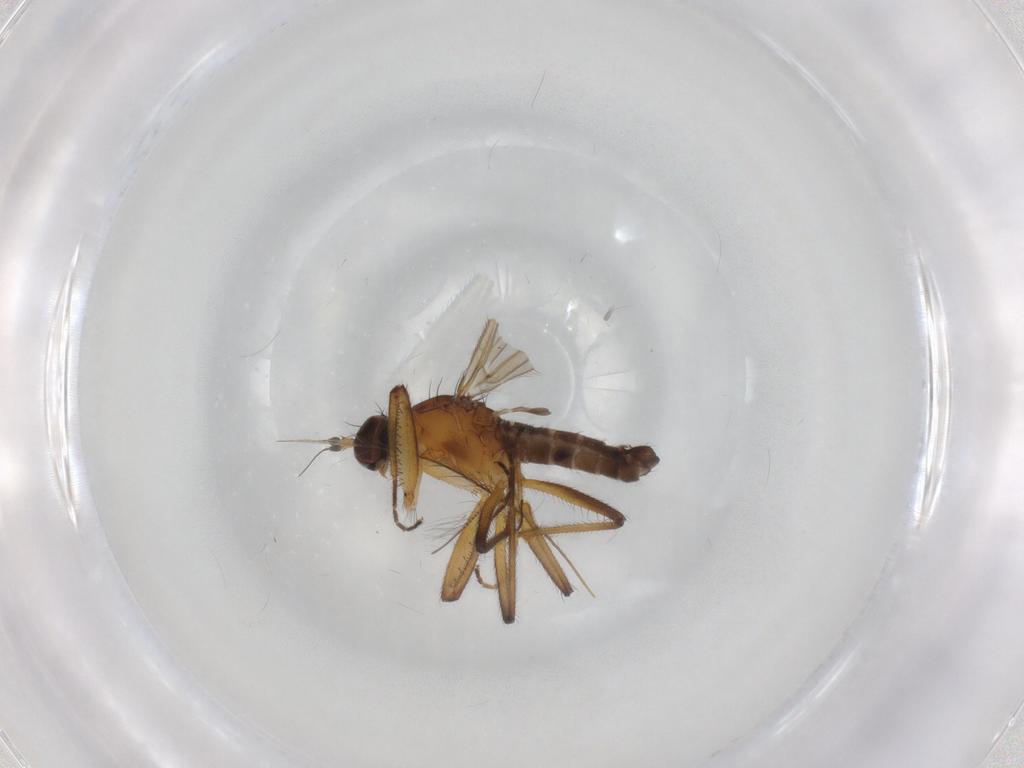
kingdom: Animalia
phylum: Arthropoda
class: Insecta
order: Diptera
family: Empididae
